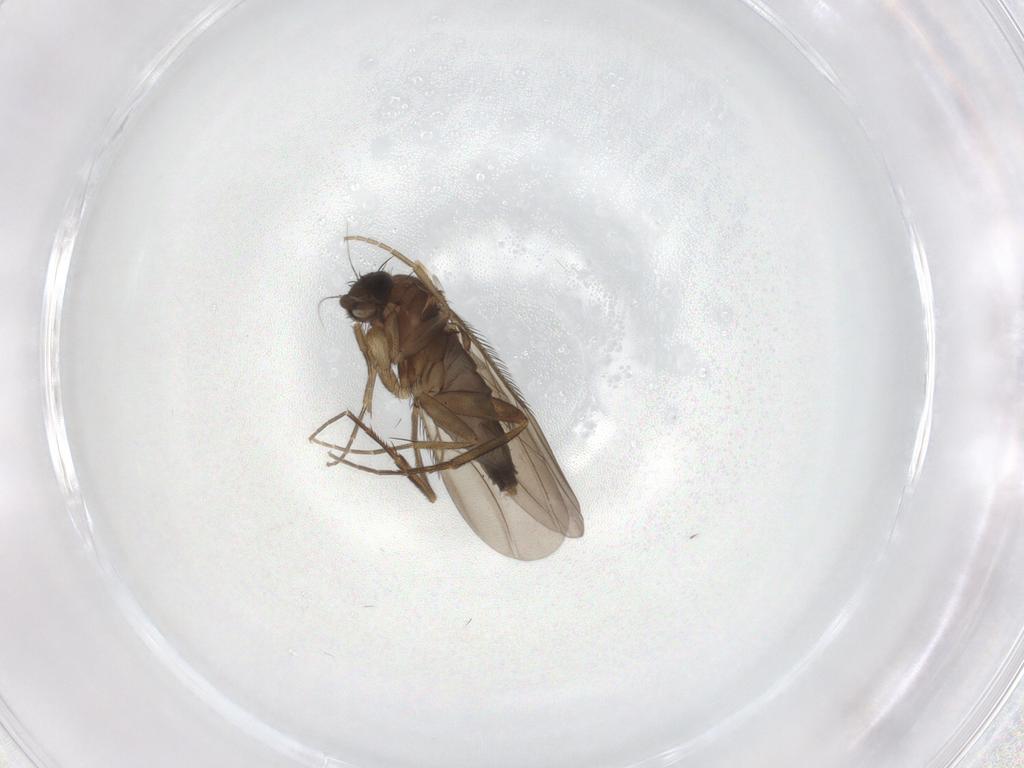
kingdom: Animalia
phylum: Arthropoda
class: Insecta
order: Diptera
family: Phoridae
